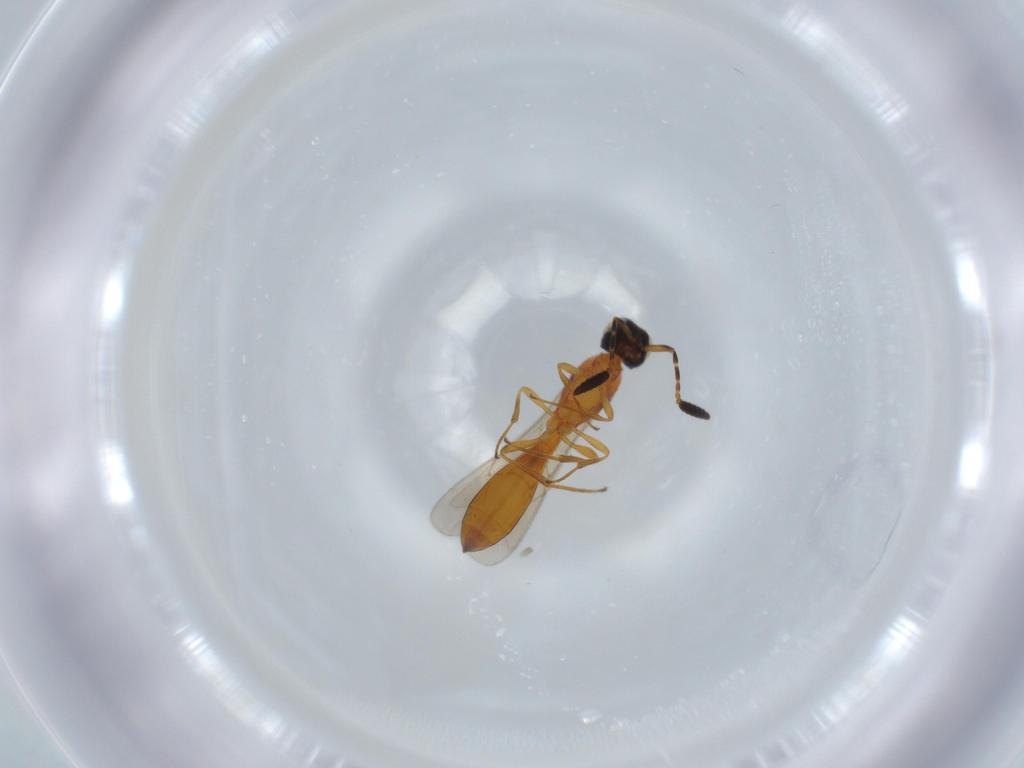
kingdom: Animalia
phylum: Arthropoda
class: Insecta
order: Hymenoptera
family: Scelionidae
